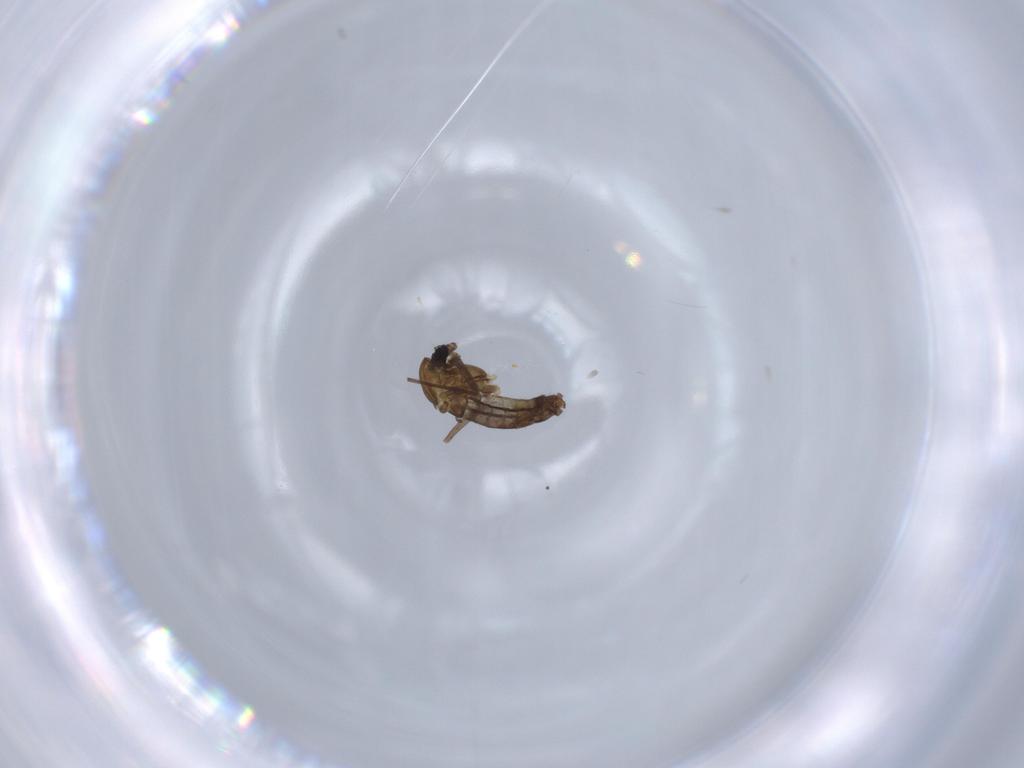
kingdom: Animalia
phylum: Arthropoda
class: Insecta
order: Diptera
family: Chironomidae
